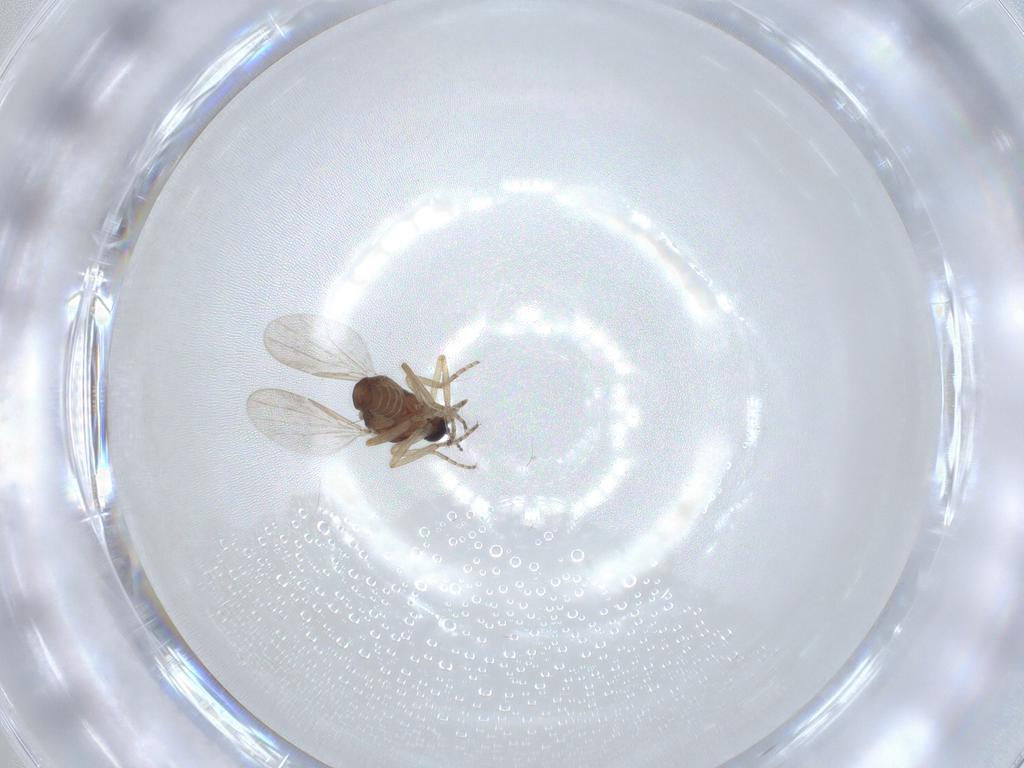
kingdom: Animalia
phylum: Arthropoda
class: Insecta
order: Diptera
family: Ceratopogonidae
